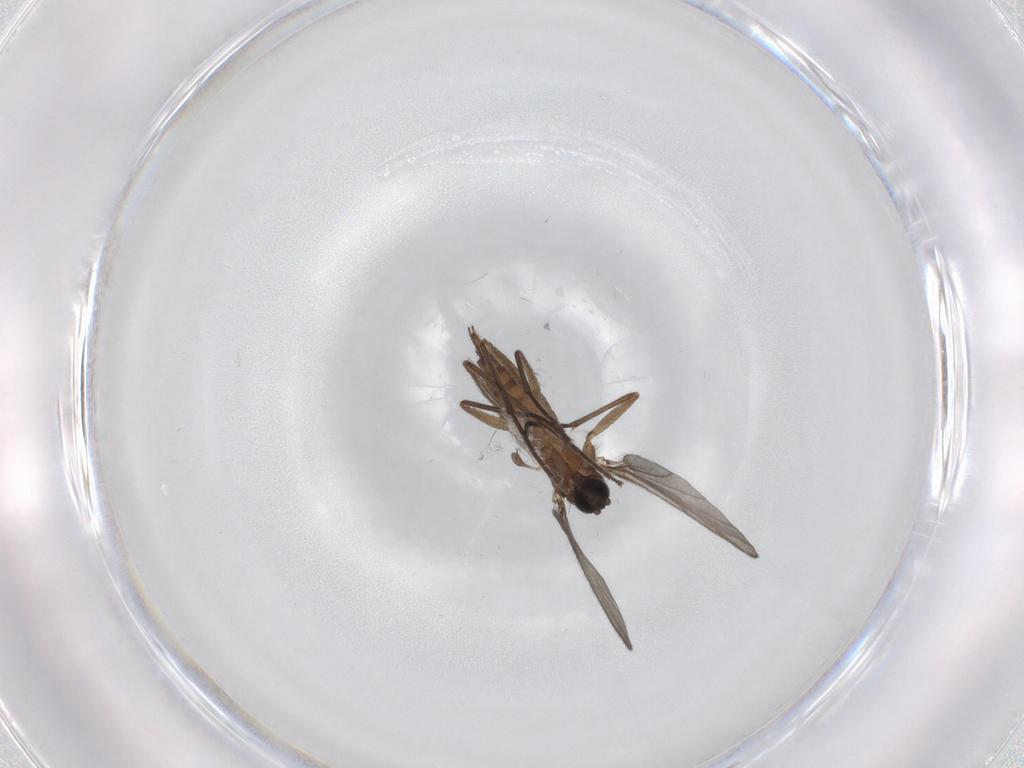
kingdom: Animalia
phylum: Arthropoda
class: Insecta
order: Diptera
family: Sciaridae
